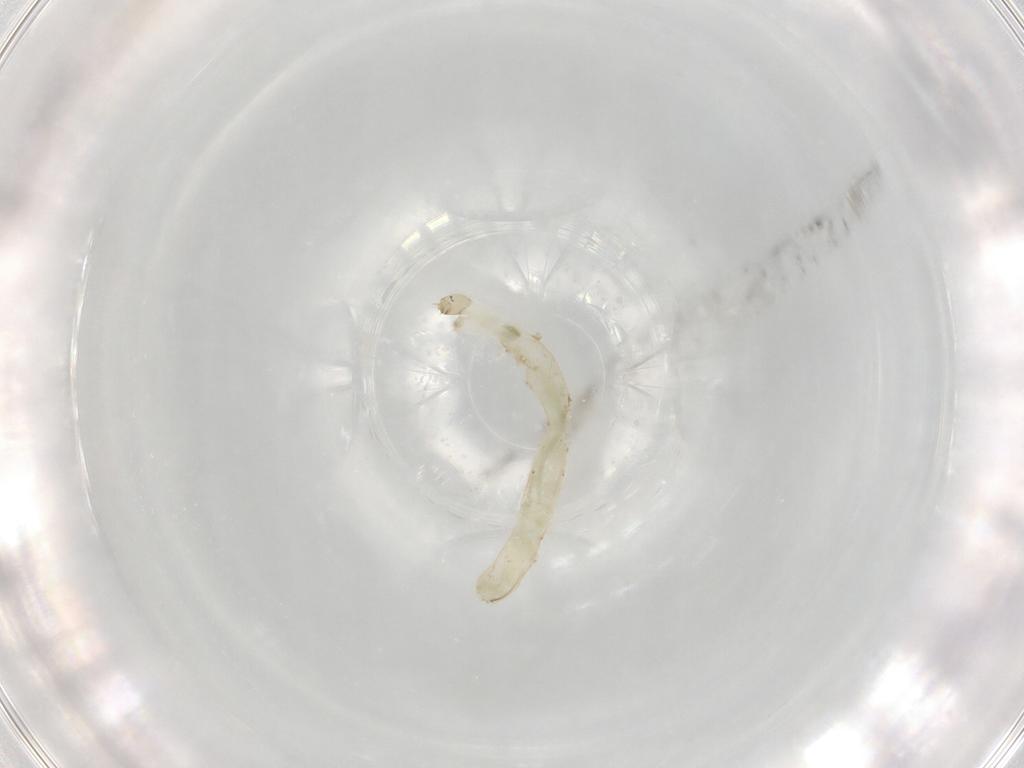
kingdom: Animalia
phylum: Arthropoda
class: Insecta
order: Diptera
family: Chironomidae
